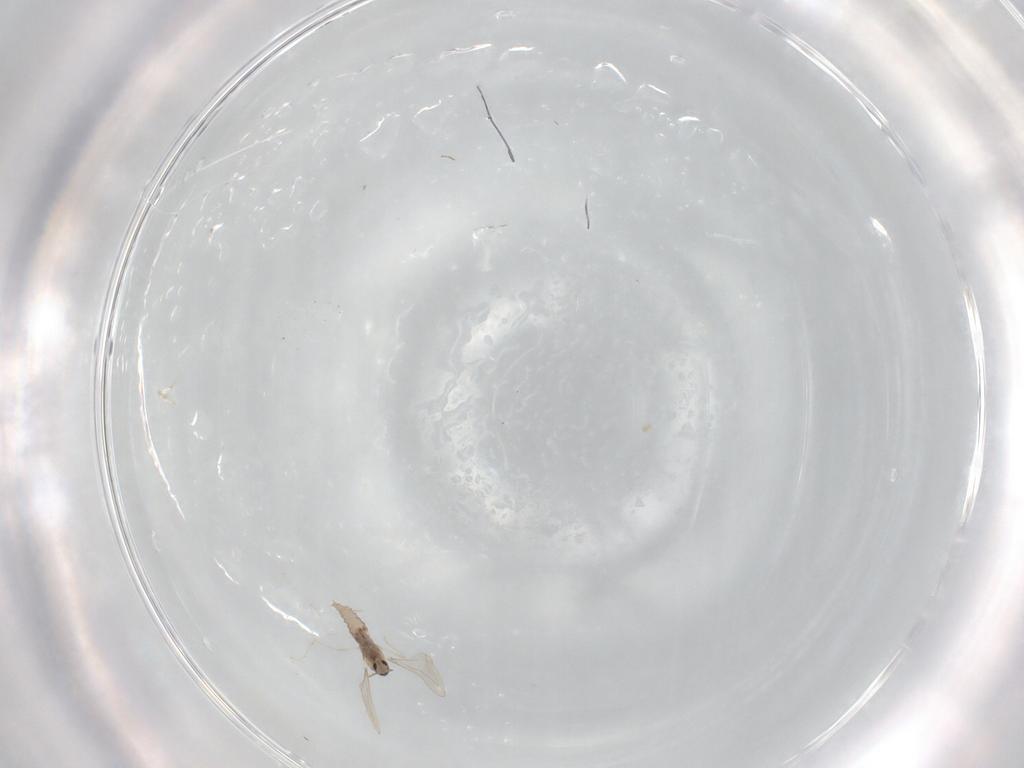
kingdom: Animalia
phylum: Arthropoda
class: Insecta
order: Diptera
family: Cecidomyiidae
